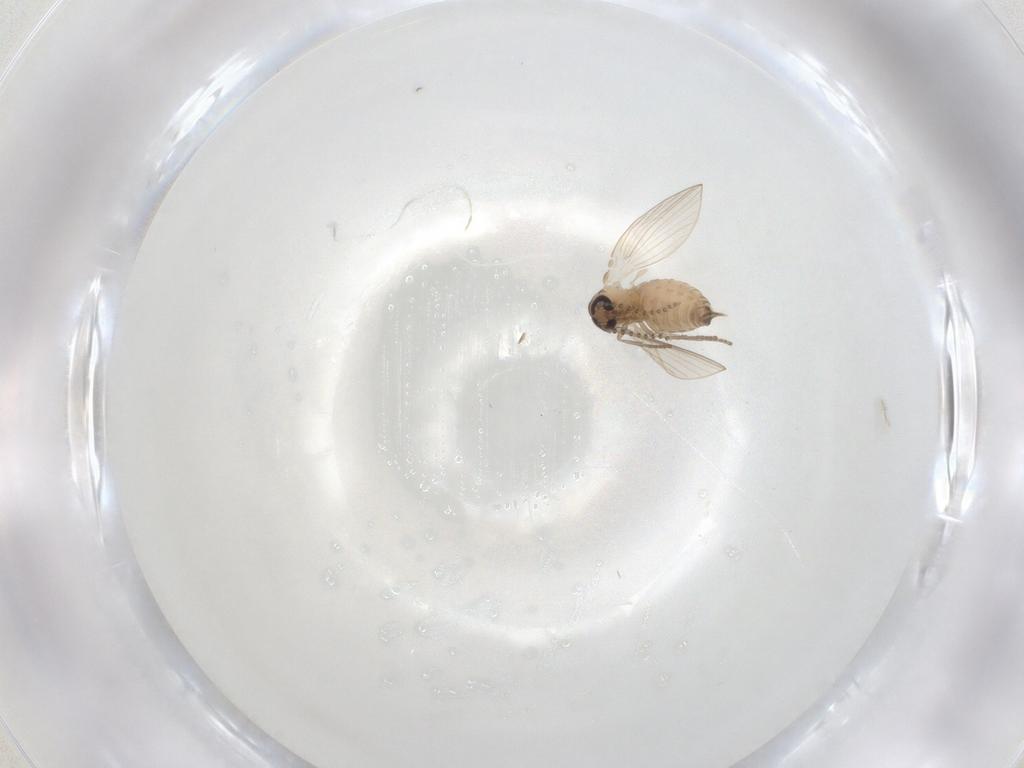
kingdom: Animalia
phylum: Arthropoda
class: Insecta
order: Diptera
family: Psychodidae
